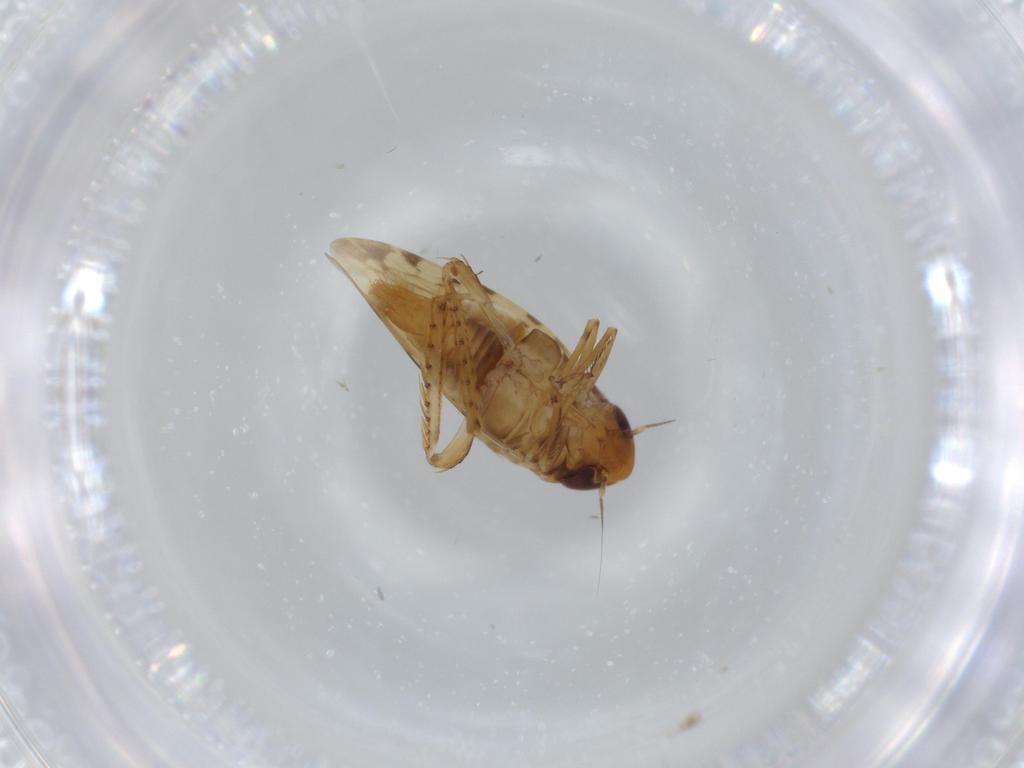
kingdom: Animalia
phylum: Arthropoda
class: Insecta
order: Hemiptera
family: Cicadellidae
